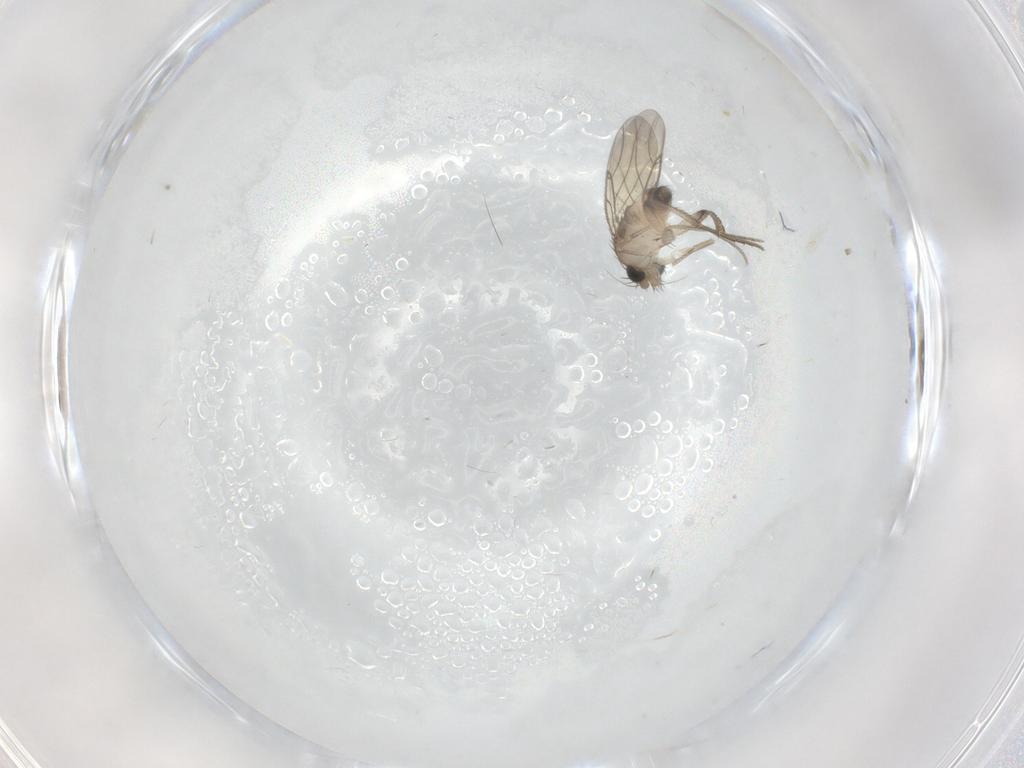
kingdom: Animalia
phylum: Arthropoda
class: Insecta
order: Diptera
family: Phoridae
